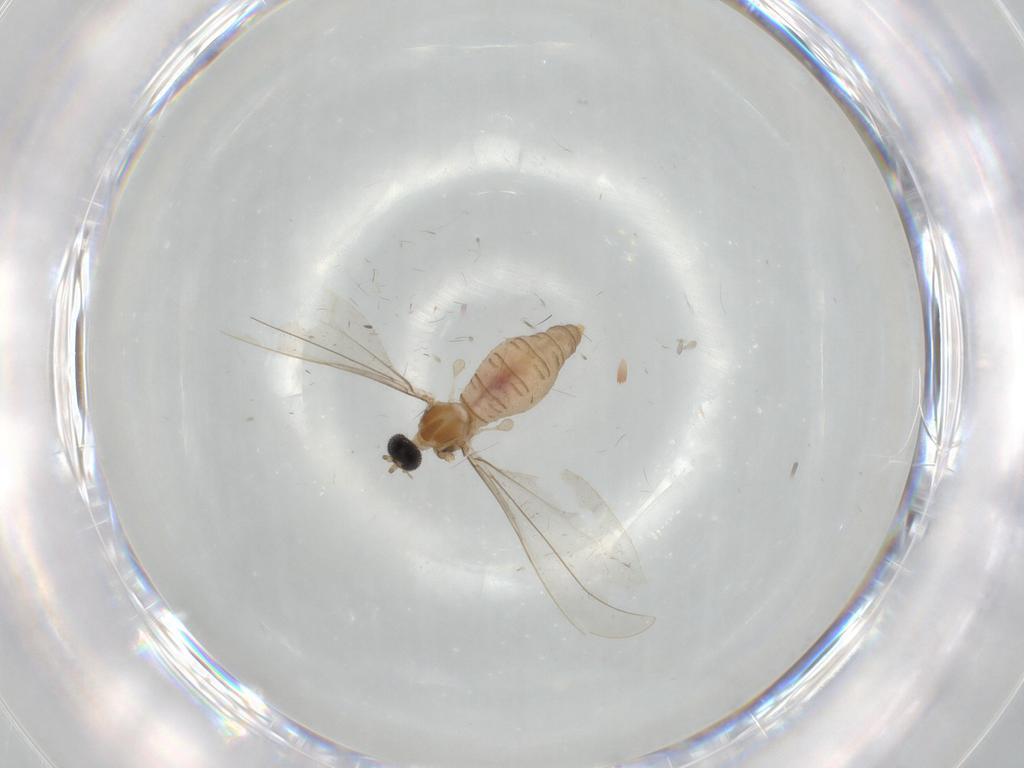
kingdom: Animalia
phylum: Arthropoda
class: Insecta
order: Diptera
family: Cecidomyiidae
